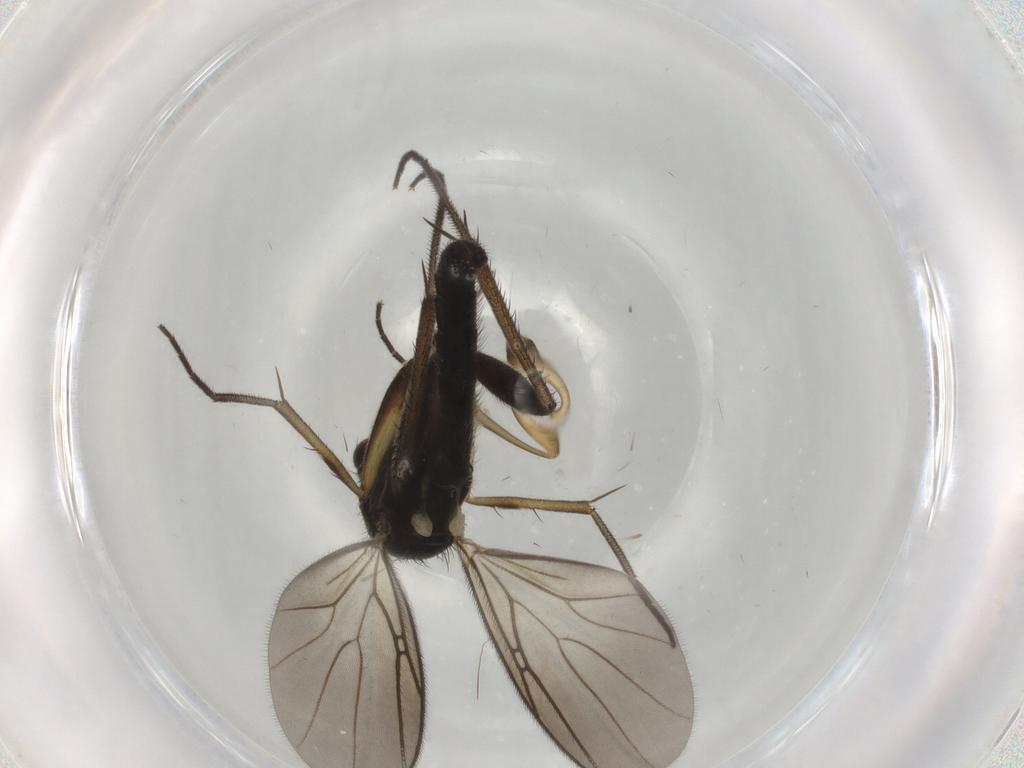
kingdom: Animalia
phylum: Arthropoda
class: Insecta
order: Diptera
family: Mycetophilidae
